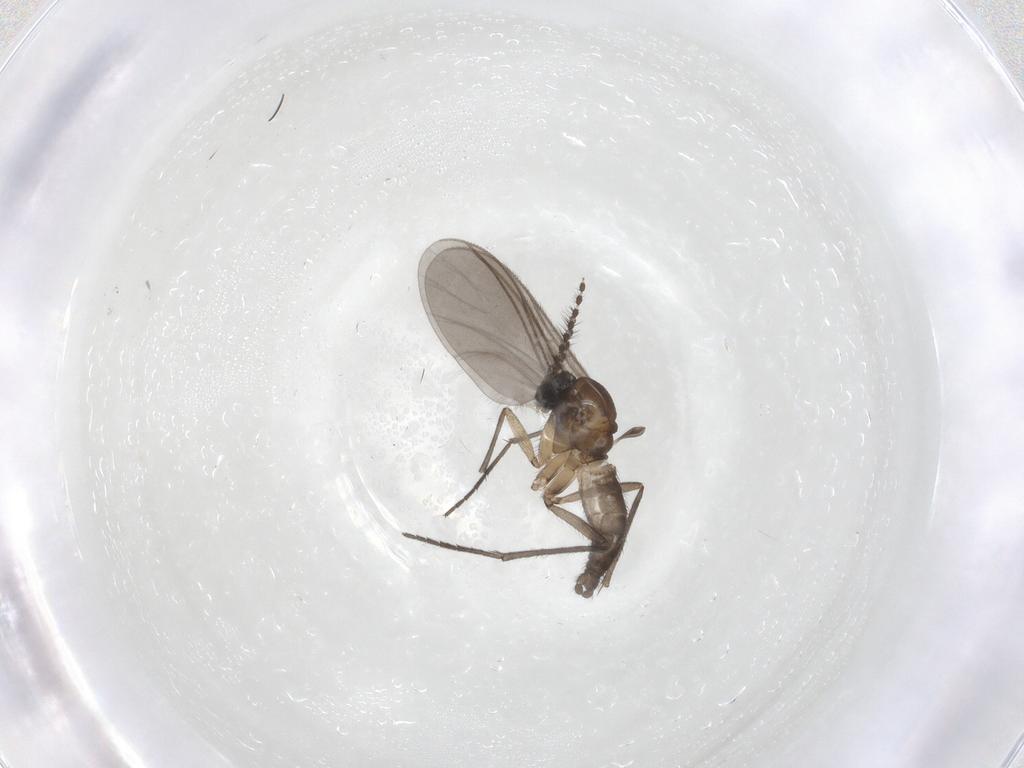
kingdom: Animalia
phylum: Arthropoda
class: Insecta
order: Diptera
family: Sciaridae
